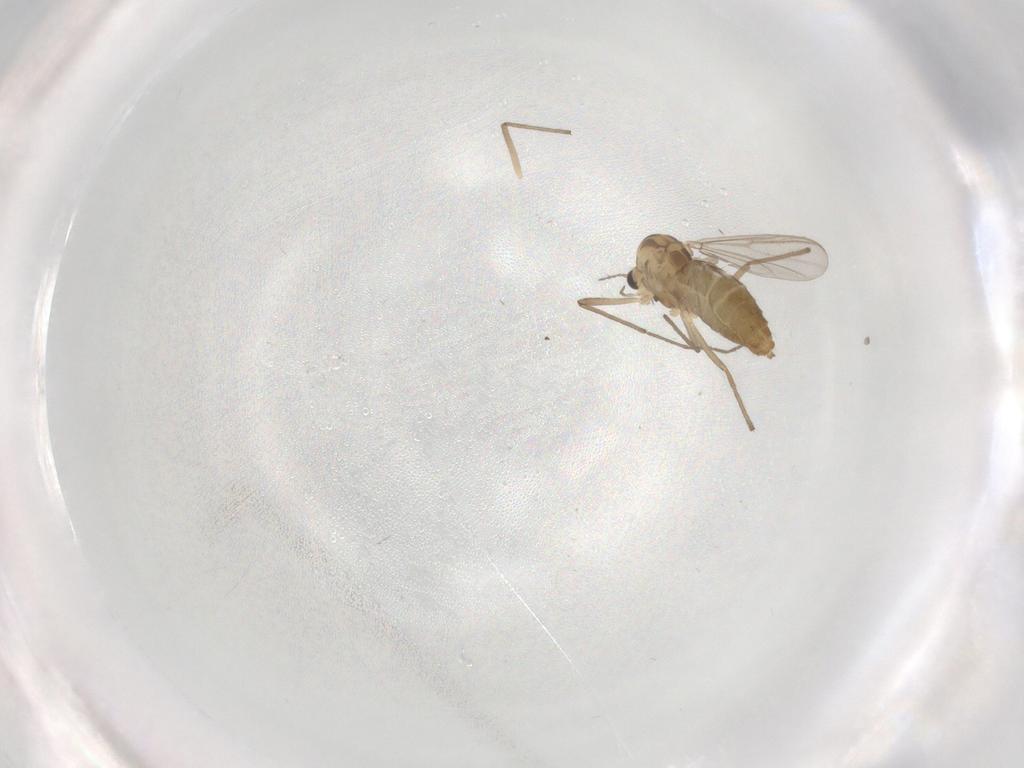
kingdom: Animalia
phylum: Arthropoda
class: Insecta
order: Diptera
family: Chironomidae
